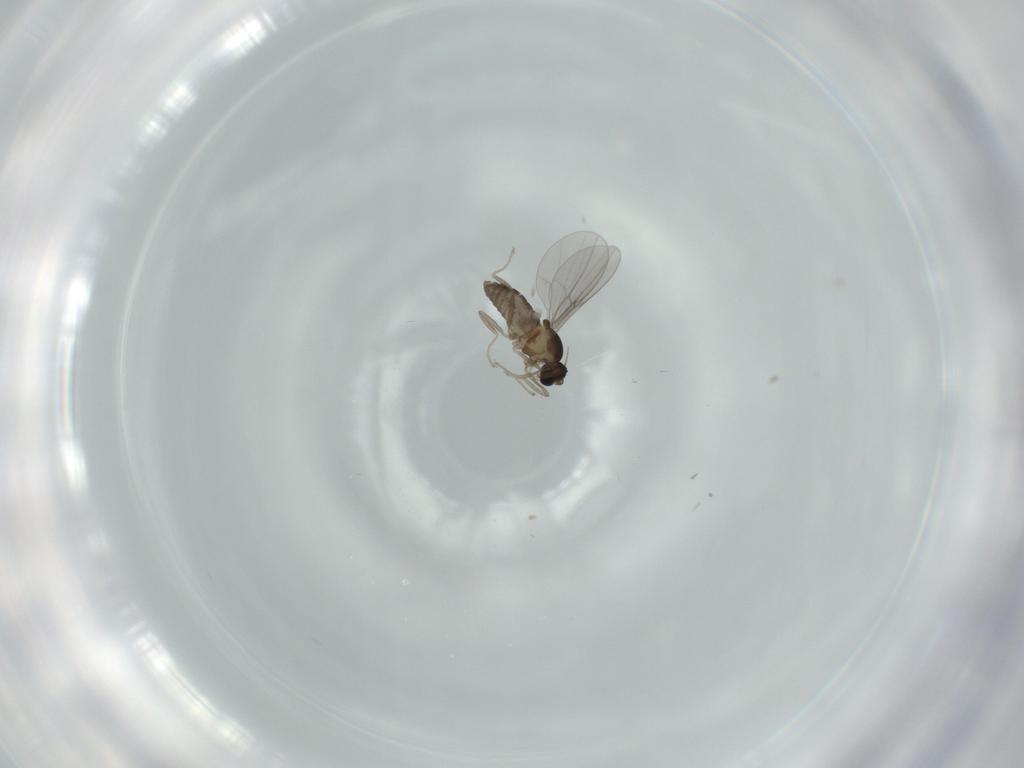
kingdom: Animalia
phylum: Arthropoda
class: Insecta
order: Diptera
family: Cecidomyiidae
